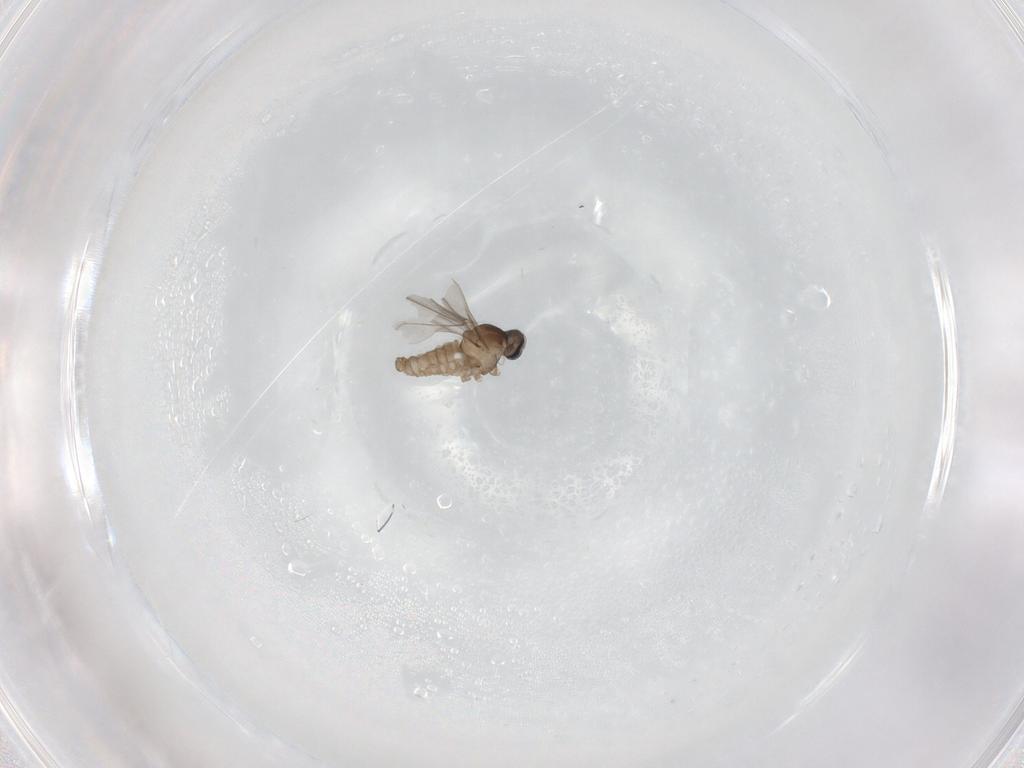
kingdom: Animalia
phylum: Arthropoda
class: Insecta
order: Diptera
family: Cecidomyiidae
